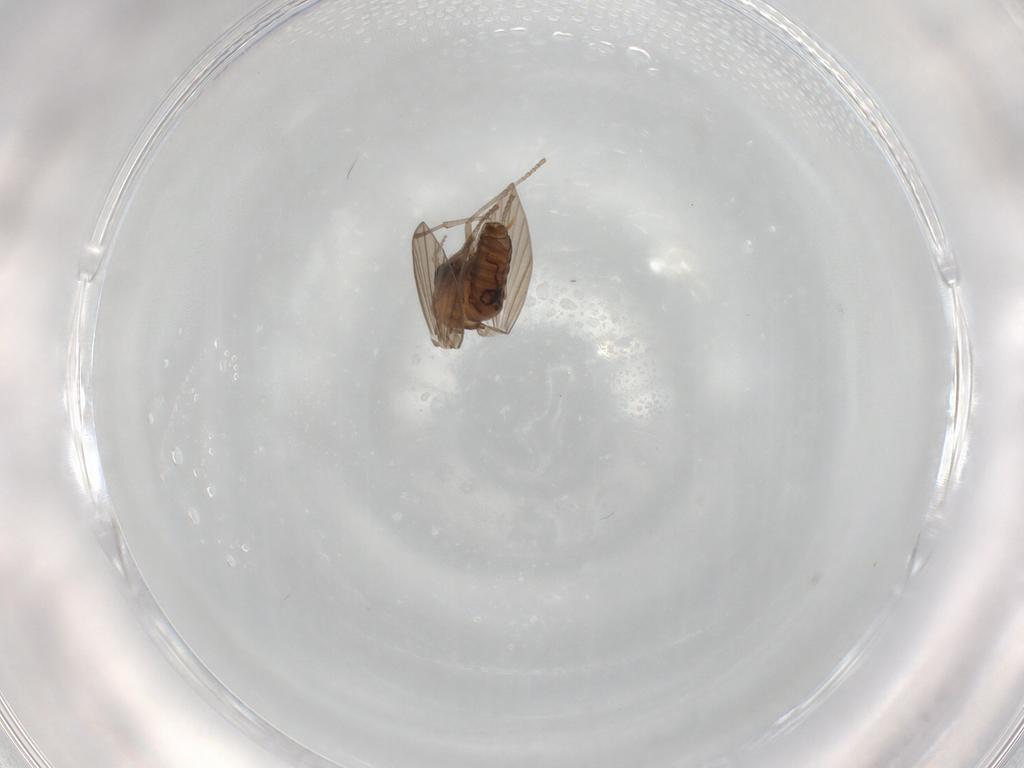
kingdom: Animalia
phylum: Arthropoda
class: Insecta
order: Diptera
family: Psychodidae
